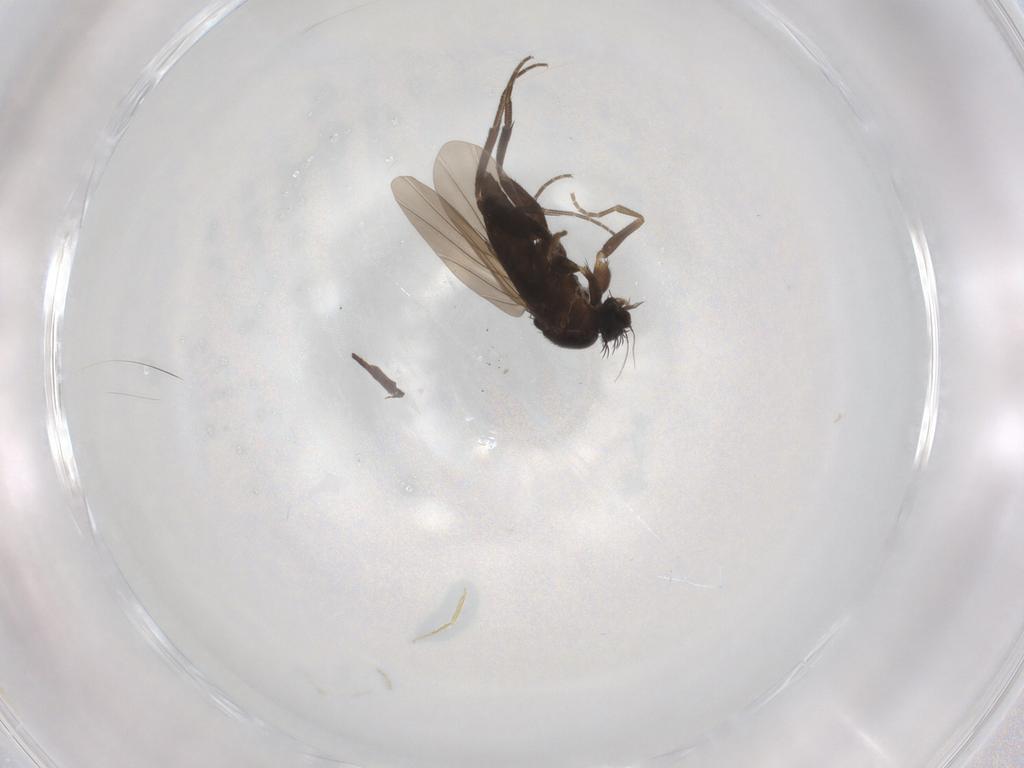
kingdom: Animalia
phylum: Arthropoda
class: Insecta
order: Diptera
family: Phoridae
